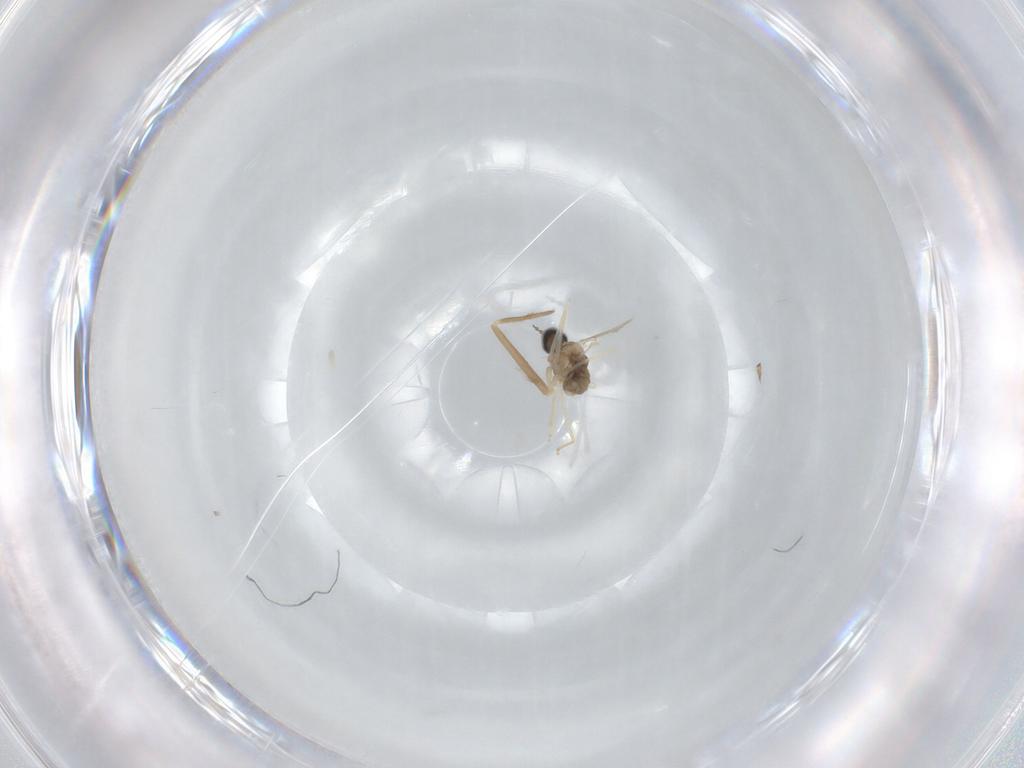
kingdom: Animalia
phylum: Arthropoda
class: Insecta
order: Diptera
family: Cecidomyiidae
